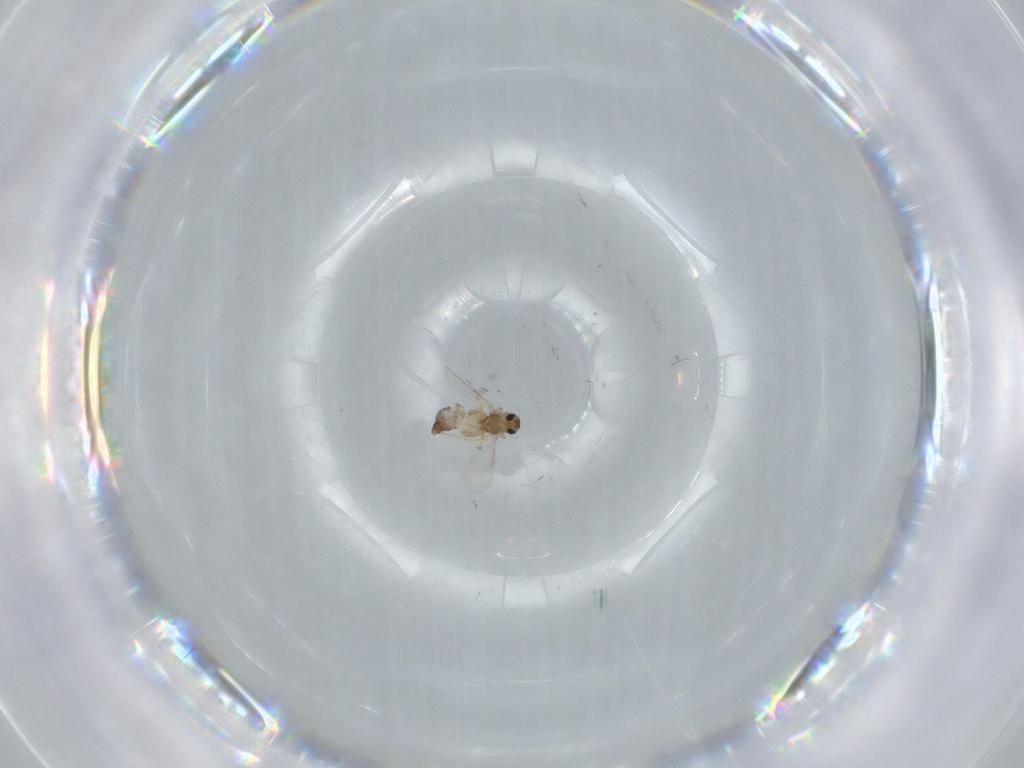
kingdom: Animalia
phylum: Arthropoda
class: Insecta
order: Diptera
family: Chironomidae
